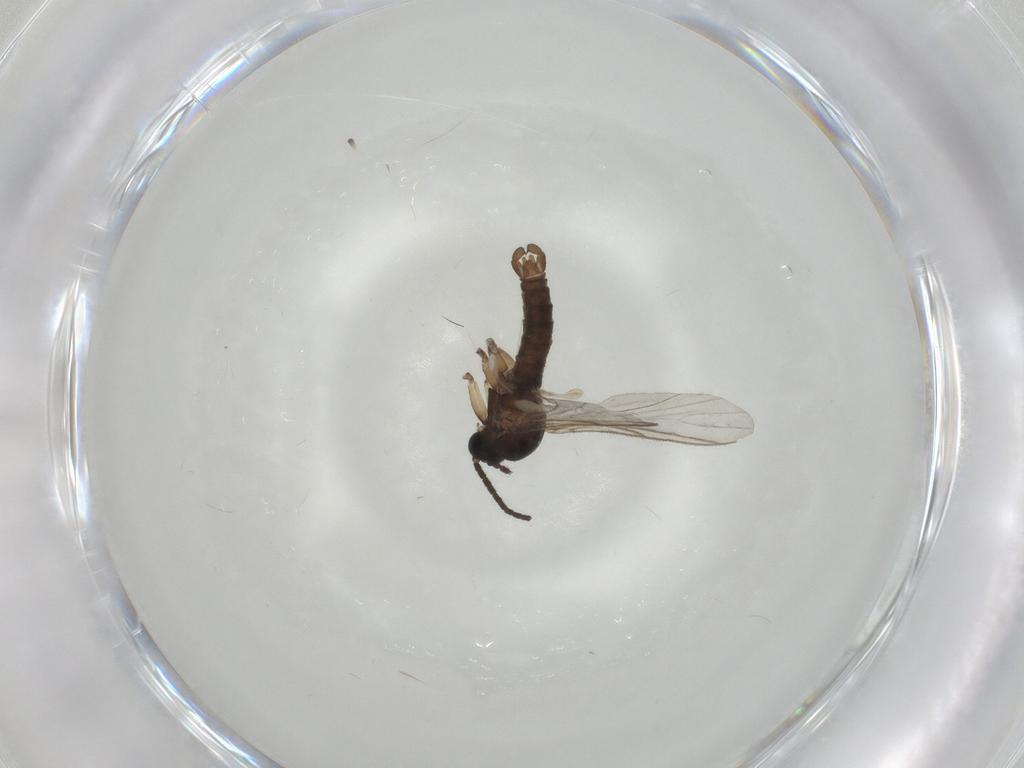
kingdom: Animalia
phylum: Arthropoda
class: Insecta
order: Diptera
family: Sciaridae
